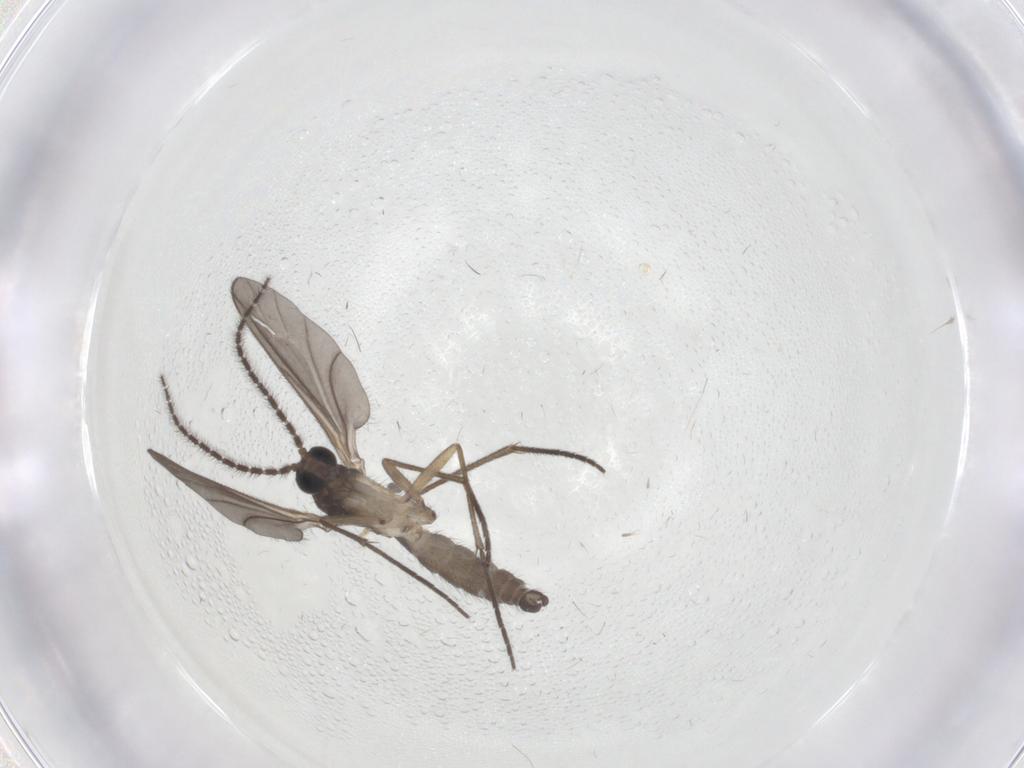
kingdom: Animalia
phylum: Arthropoda
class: Insecta
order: Diptera
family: Sciaridae
